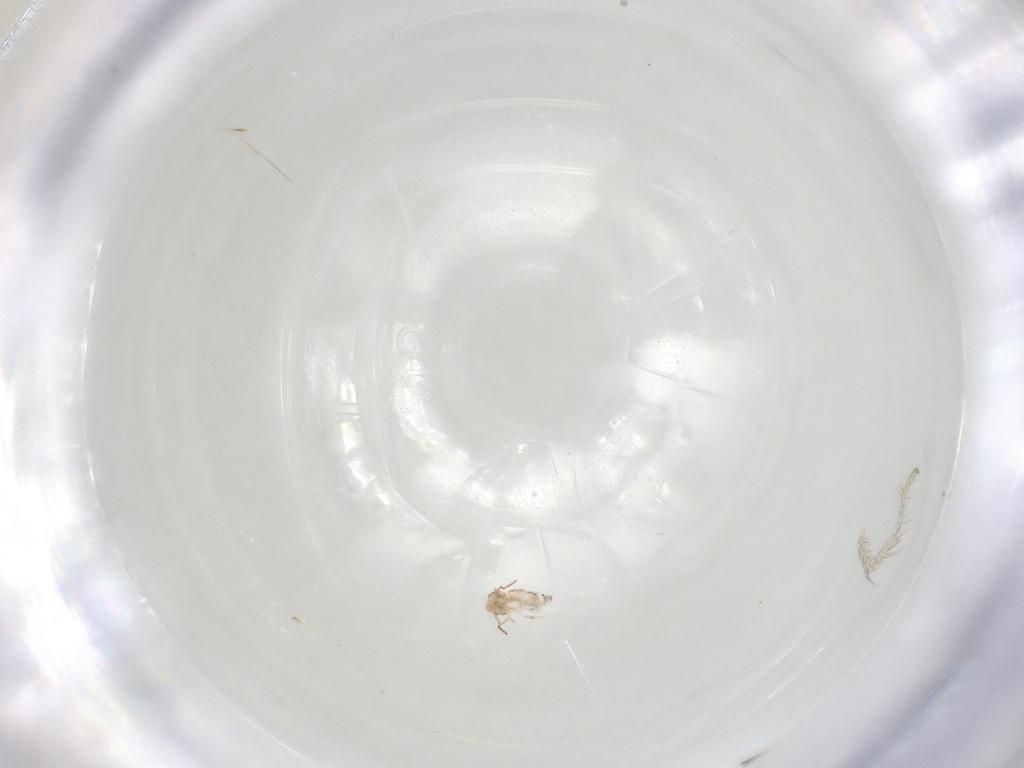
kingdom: Animalia
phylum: Arthropoda
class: Collembola
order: Symphypleona
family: Bourletiellidae
